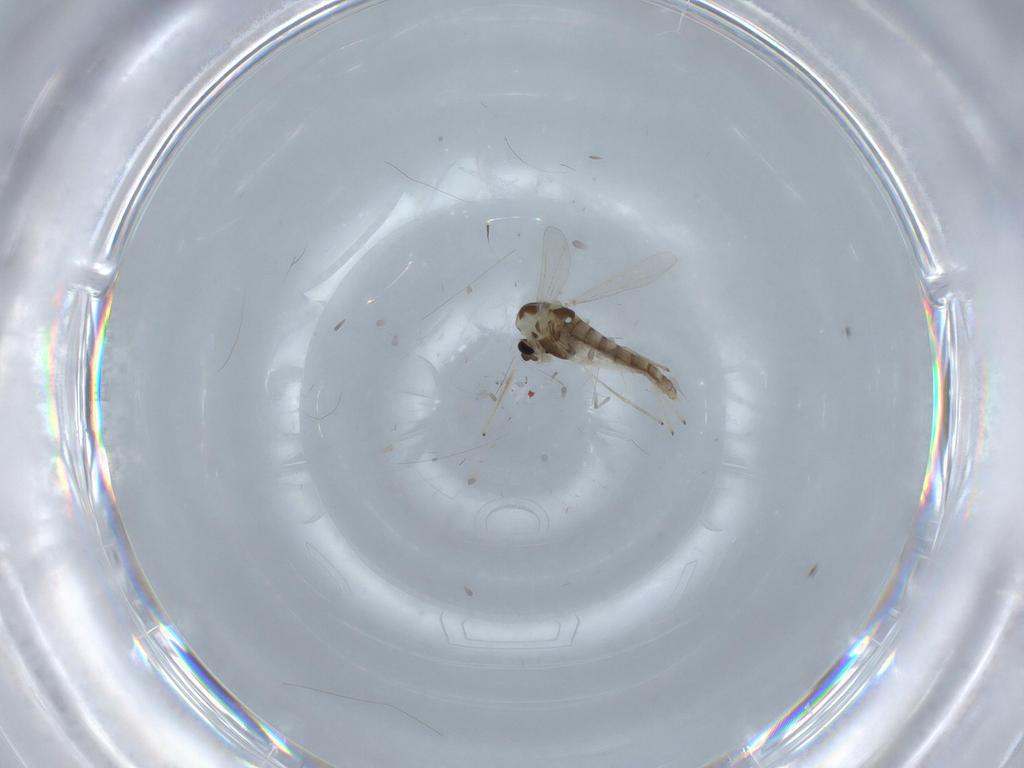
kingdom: Animalia
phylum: Arthropoda
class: Insecta
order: Diptera
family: Chironomidae
